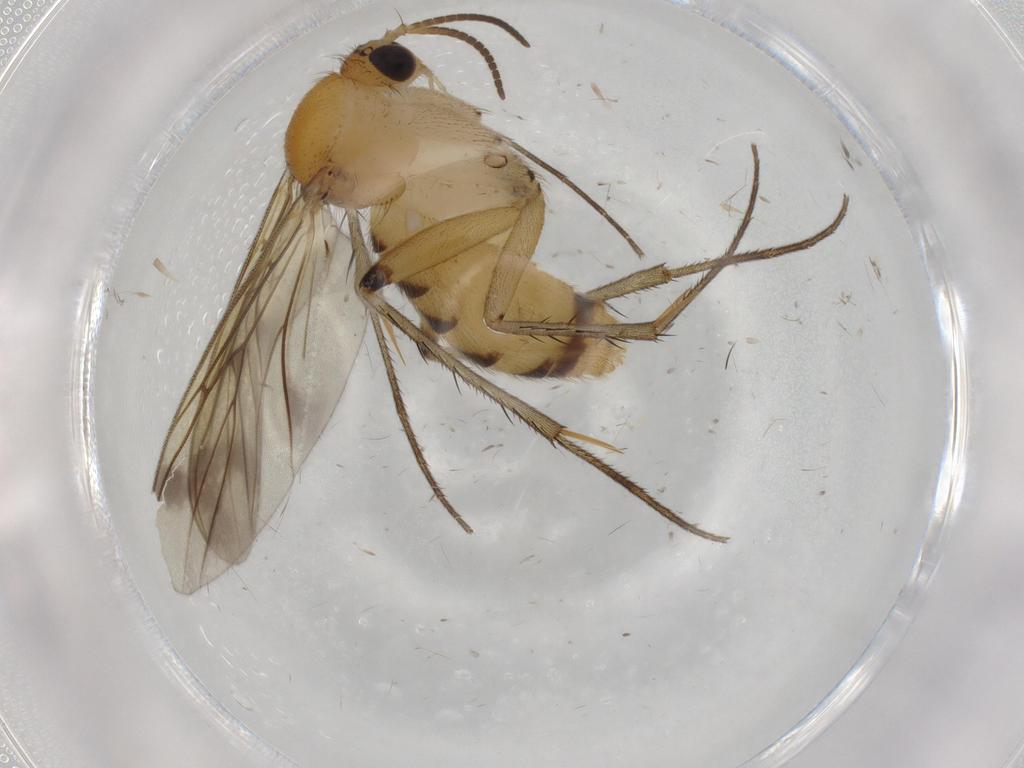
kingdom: Animalia
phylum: Arthropoda
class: Insecta
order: Diptera
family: Mycetophilidae
